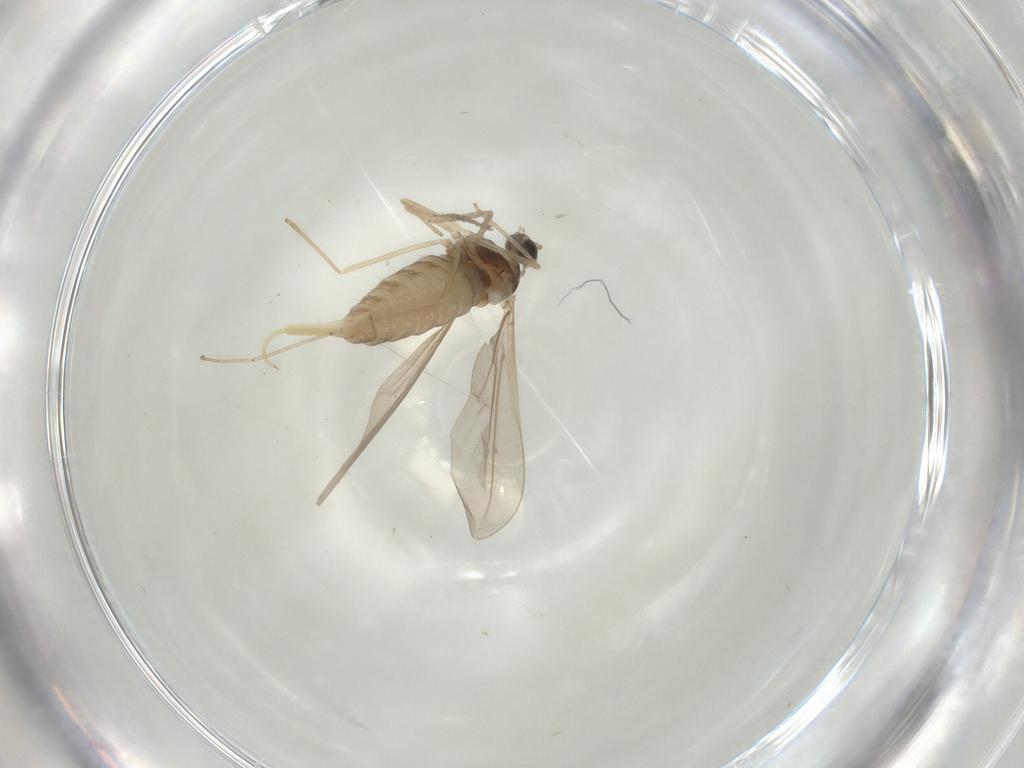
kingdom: Animalia
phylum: Arthropoda
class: Insecta
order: Diptera
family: Cecidomyiidae
